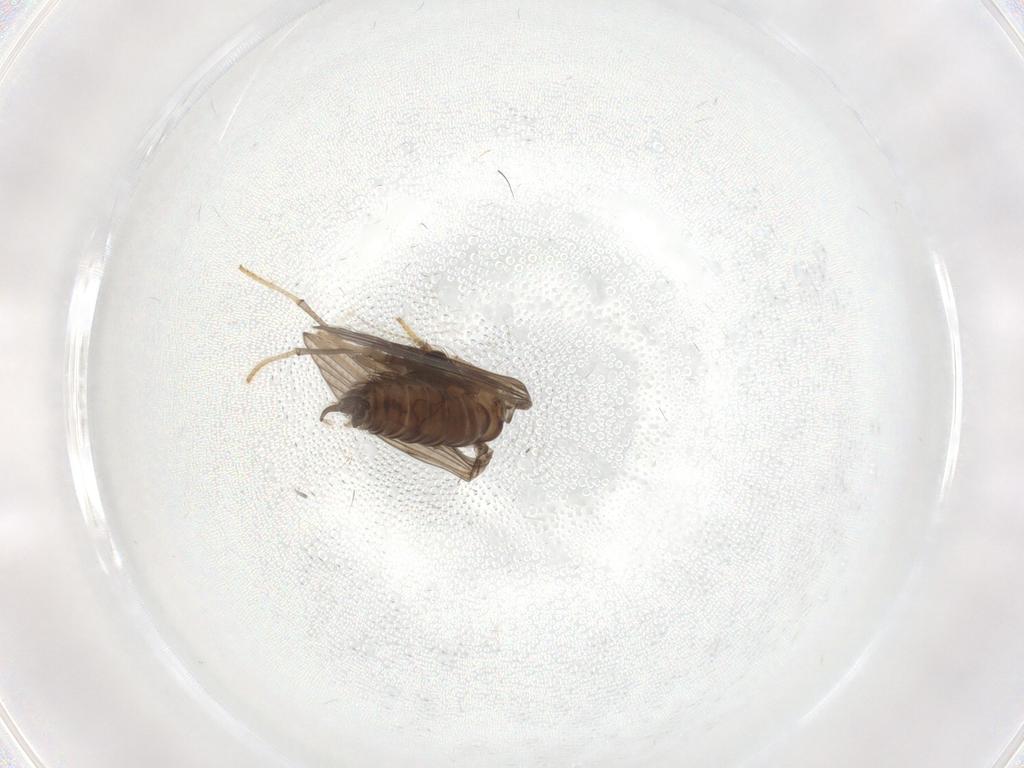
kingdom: Animalia
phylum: Arthropoda
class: Insecta
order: Diptera
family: Psychodidae
